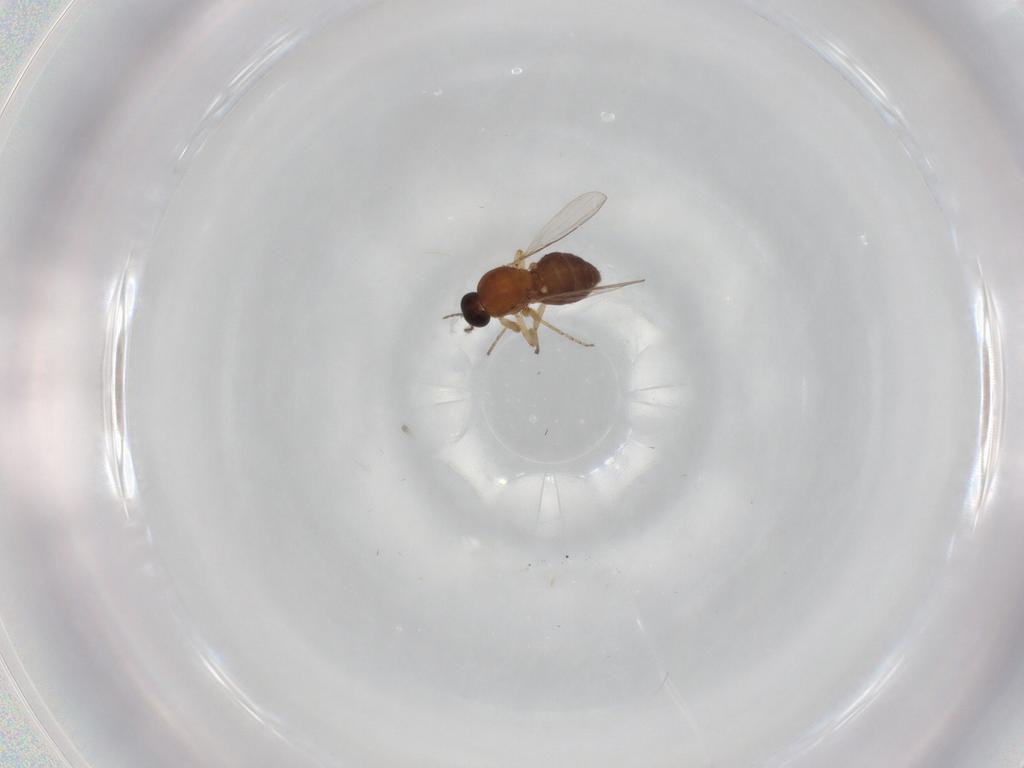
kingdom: Animalia
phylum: Arthropoda
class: Insecta
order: Diptera
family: Ceratopogonidae
